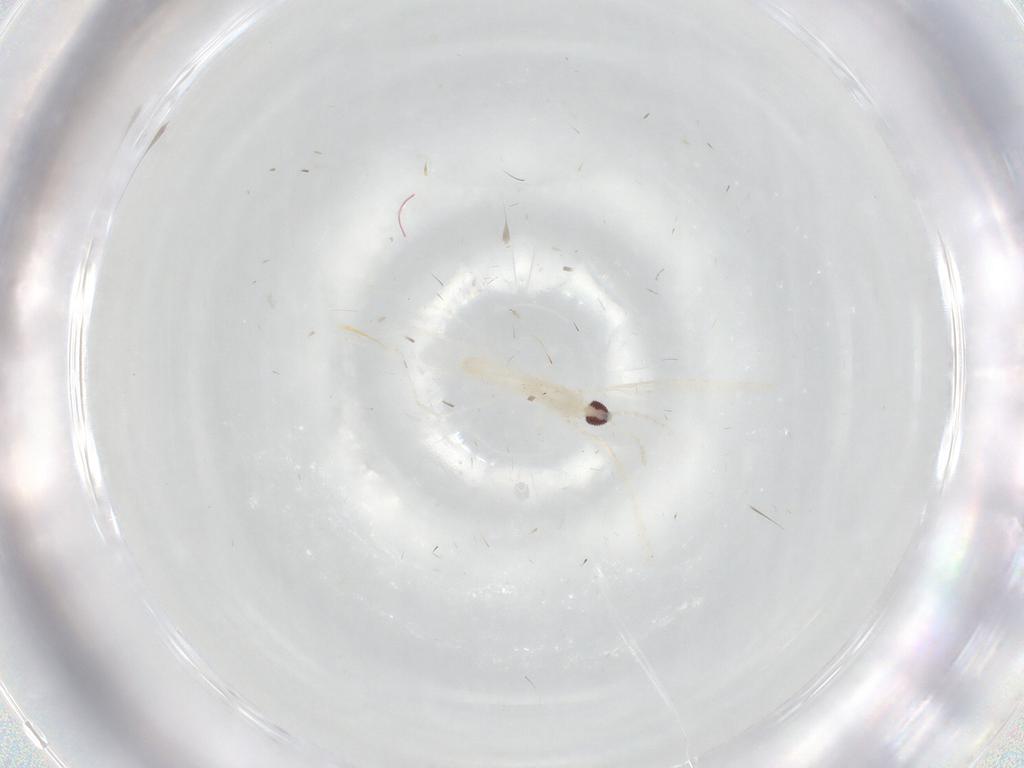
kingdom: Animalia
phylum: Arthropoda
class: Insecta
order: Diptera
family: Cecidomyiidae
